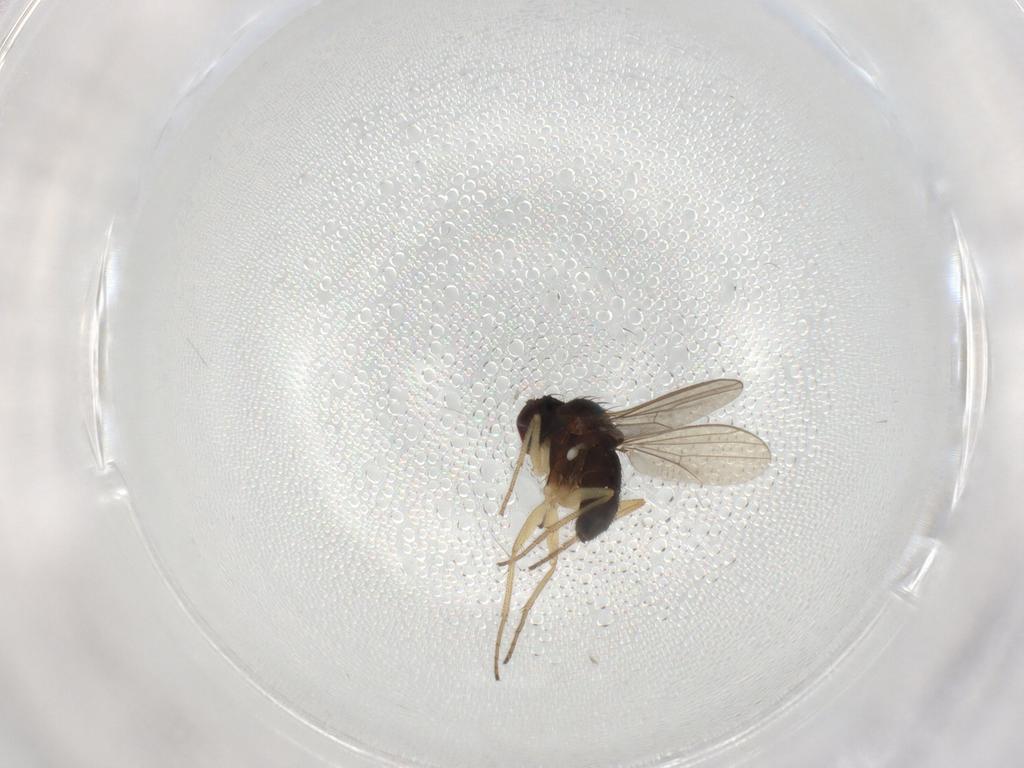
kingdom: Animalia
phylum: Arthropoda
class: Insecta
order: Diptera
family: Dolichopodidae
